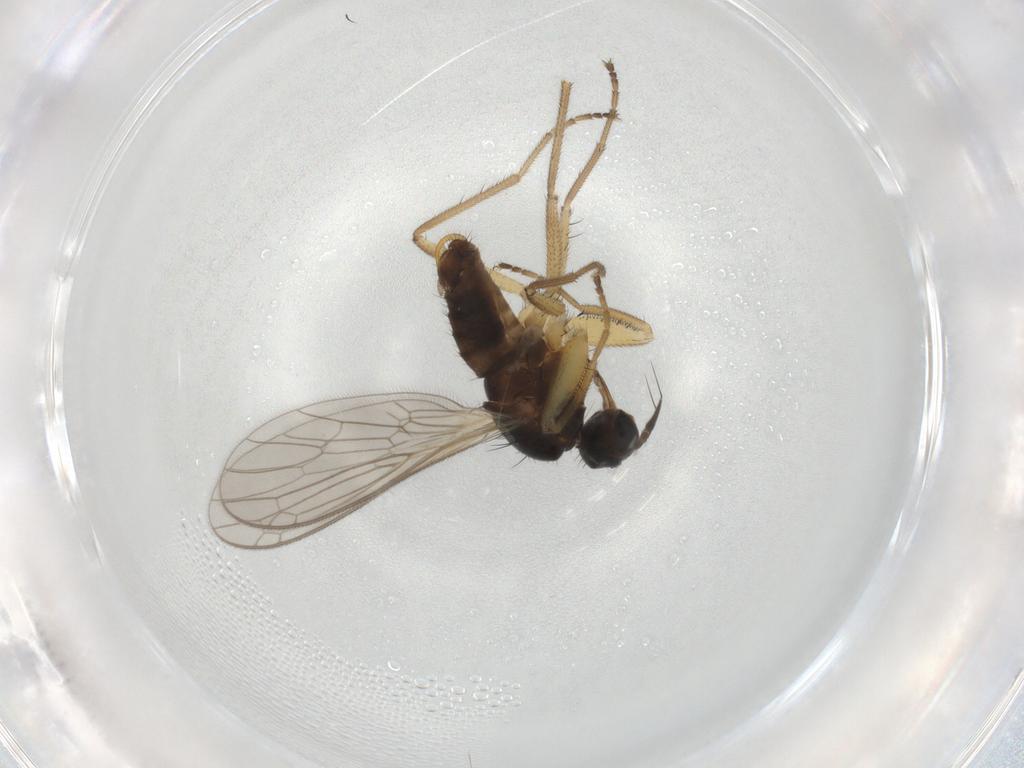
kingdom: Animalia
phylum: Arthropoda
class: Insecta
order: Diptera
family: Empididae
